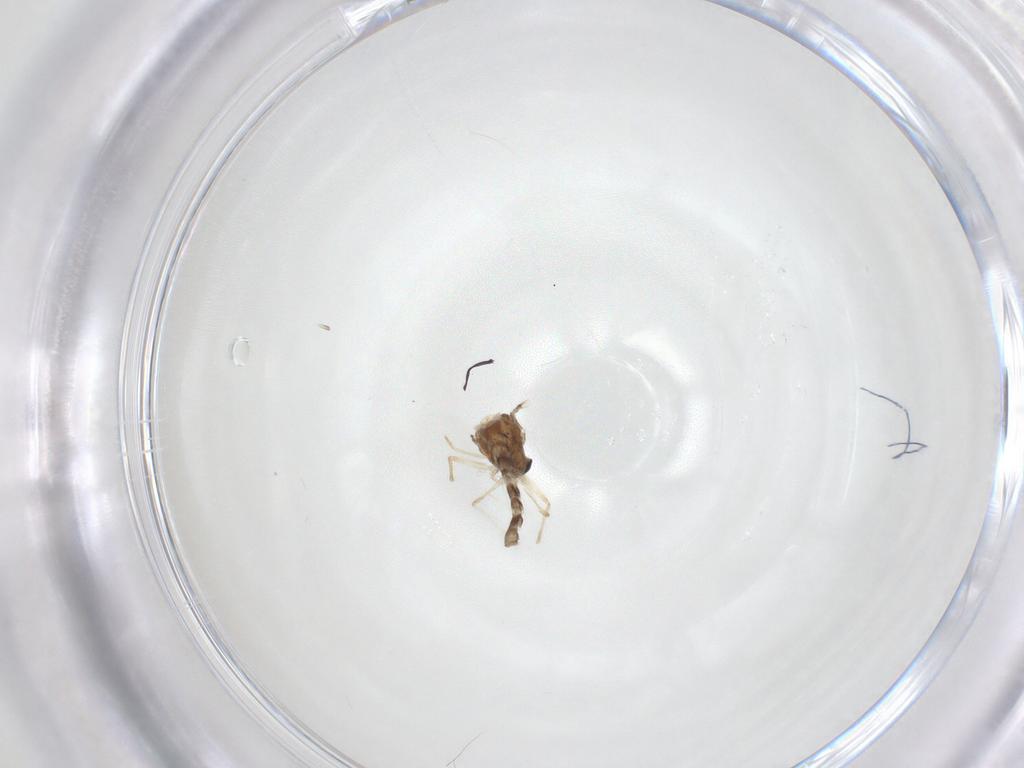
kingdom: Animalia
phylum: Arthropoda
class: Insecta
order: Diptera
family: Chironomidae
